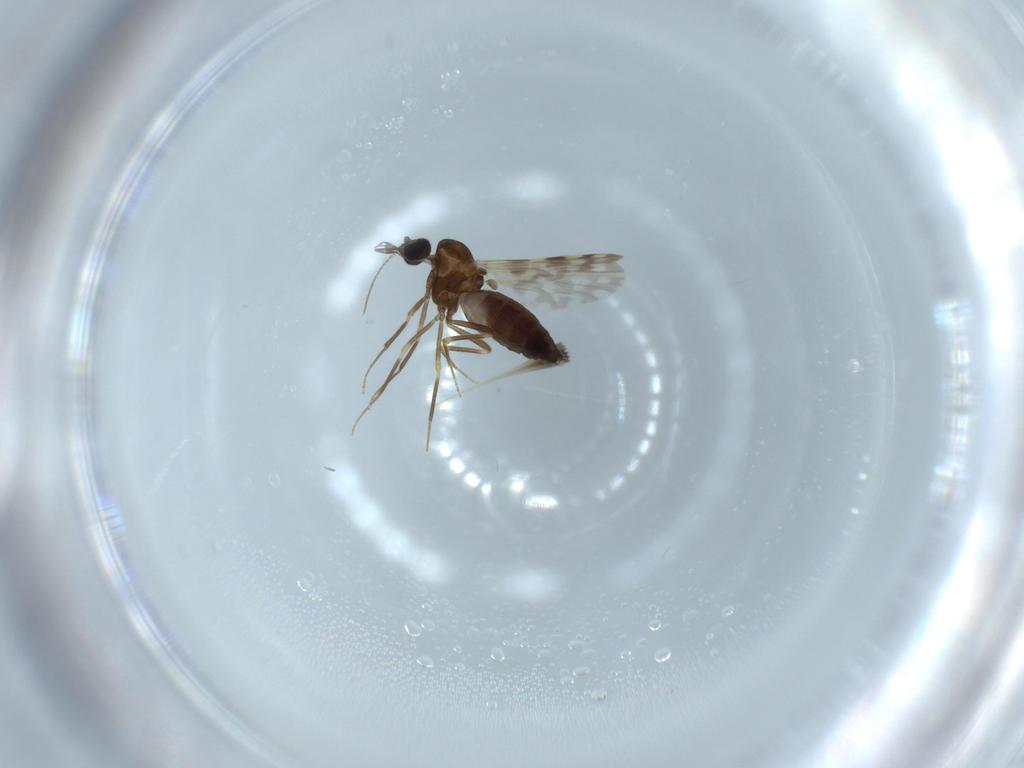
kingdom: Animalia
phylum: Arthropoda
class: Insecta
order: Diptera
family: Ceratopogonidae
